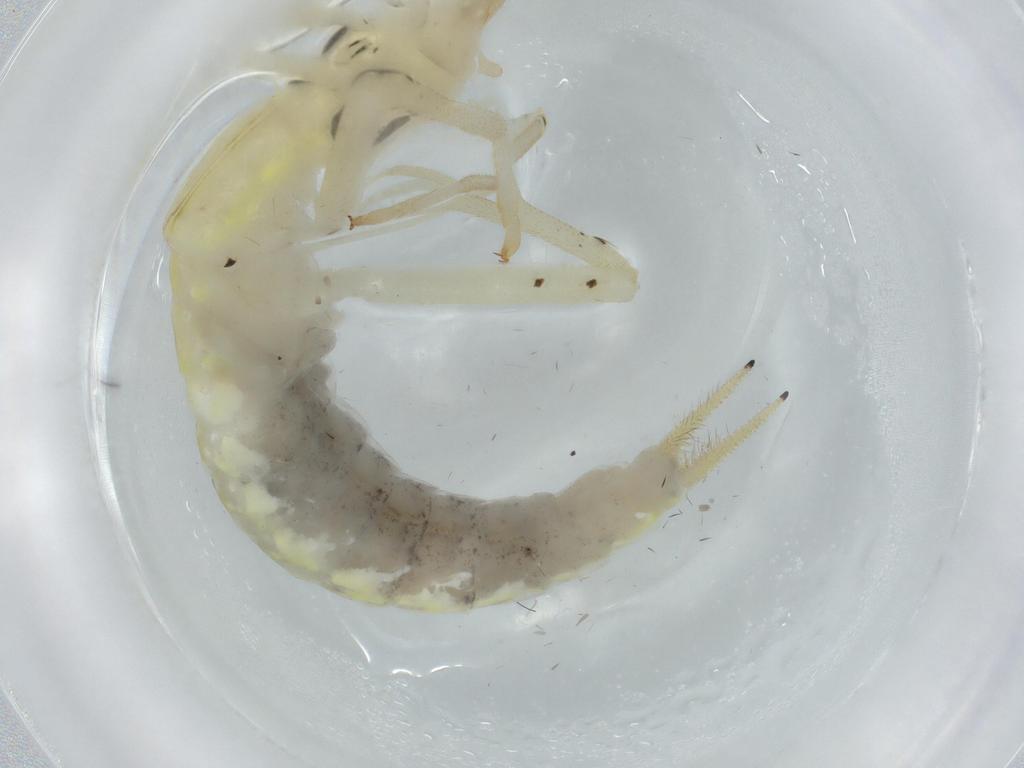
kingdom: Animalia
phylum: Arthropoda
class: Insecta
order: Orthoptera
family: Oecanthidae
